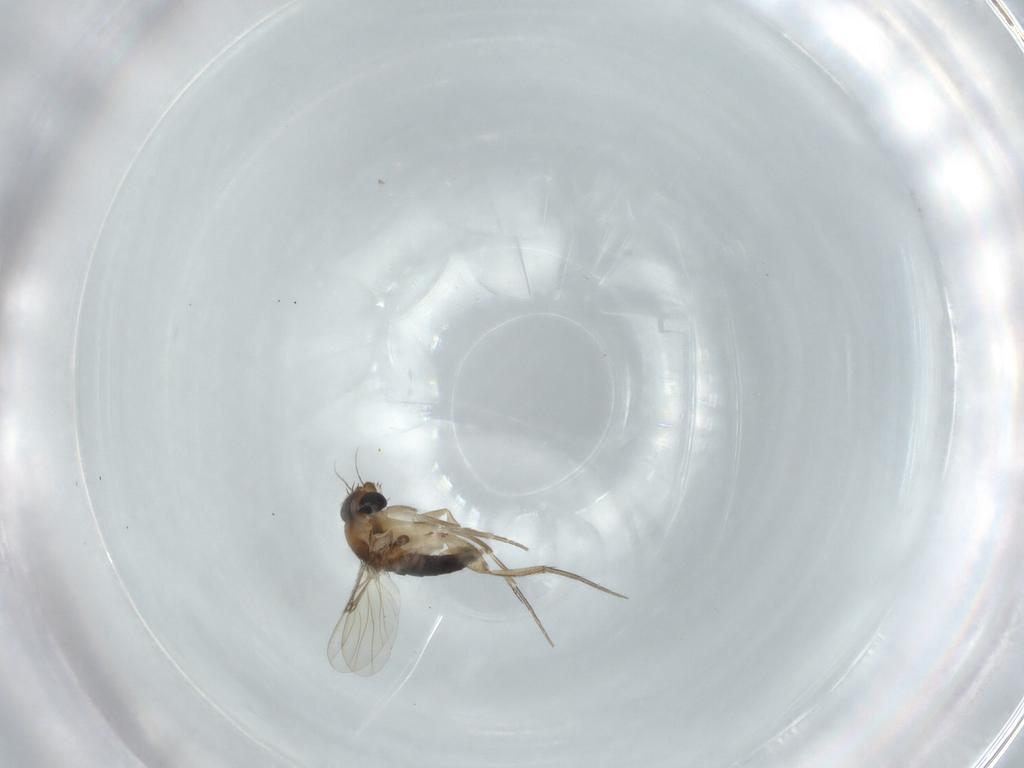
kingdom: Animalia
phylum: Arthropoda
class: Insecta
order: Diptera
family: Phoridae
